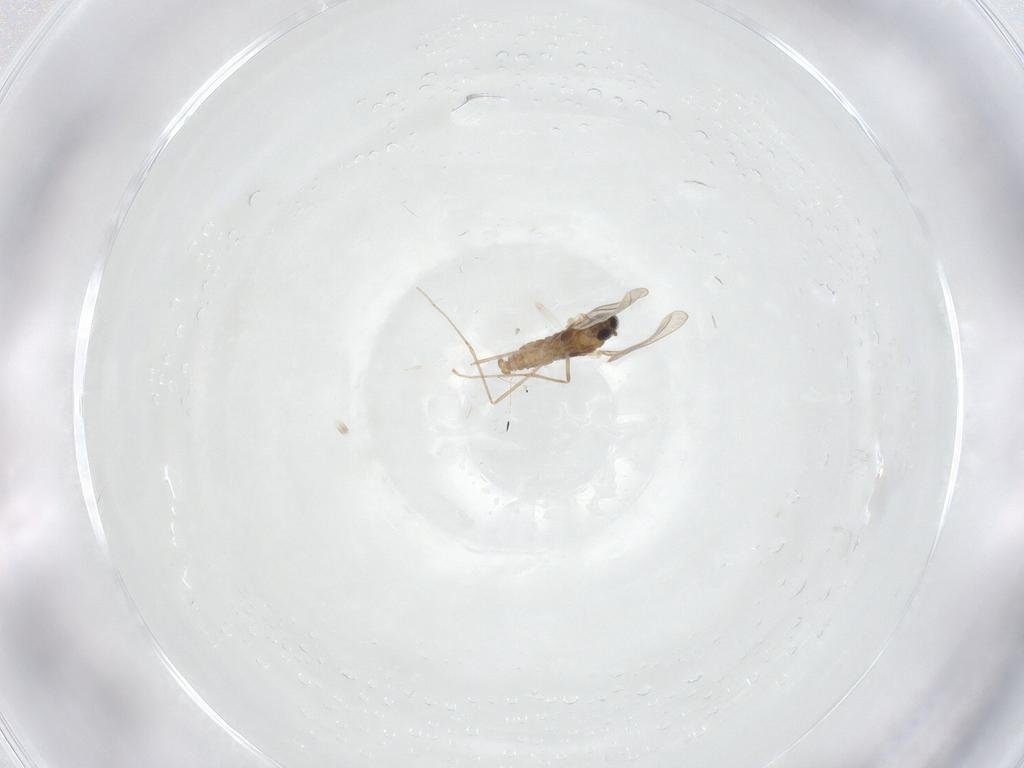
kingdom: Animalia
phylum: Arthropoda
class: Insecta
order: Diptera
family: Cecidomyiidae
